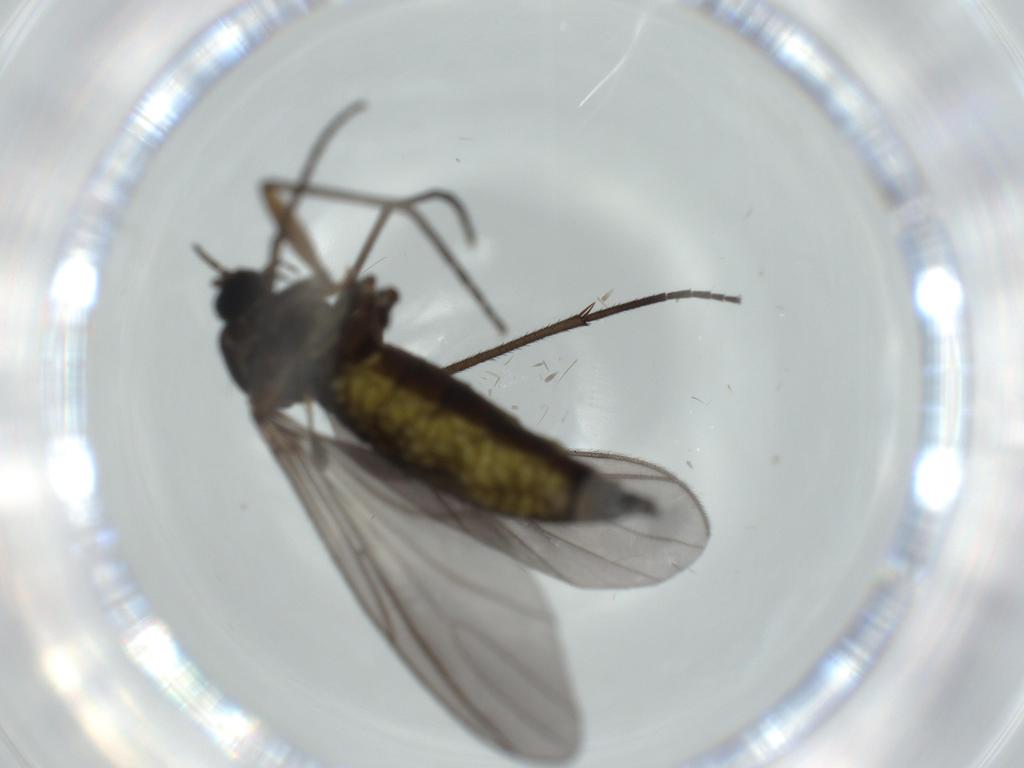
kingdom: Animalia
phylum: Arthropoda
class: Insecta
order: Diptera
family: Sciaridae
